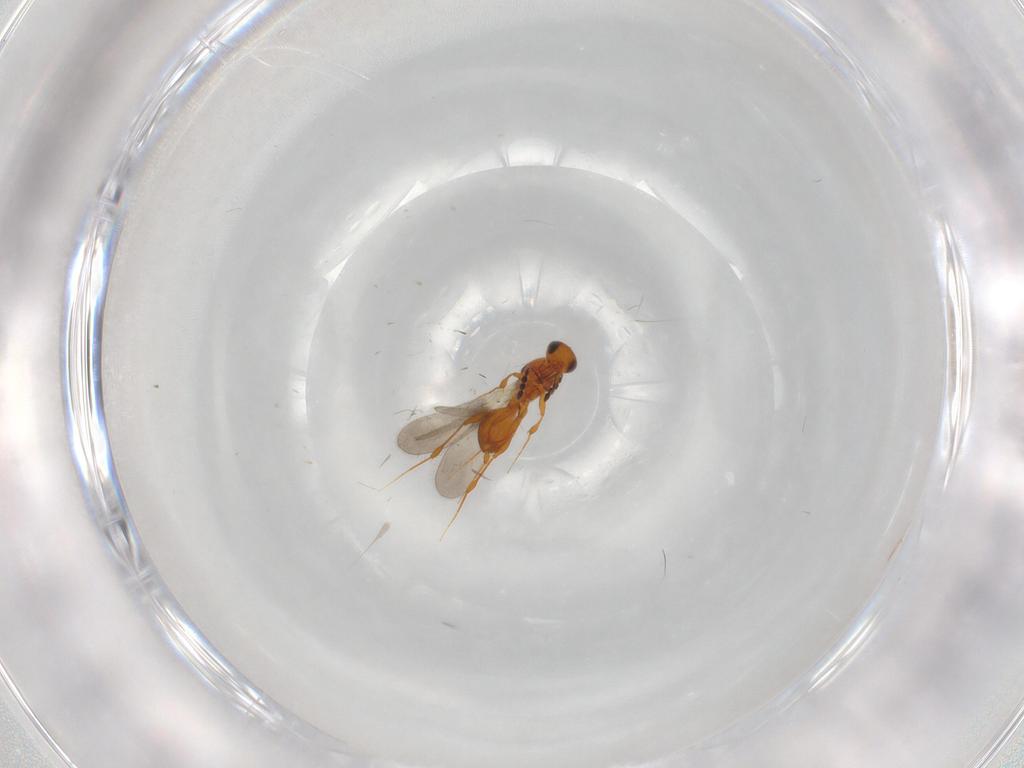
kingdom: Animalia
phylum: Arthropoda
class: Insecta
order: Hymenoptera
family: Platygastridae
